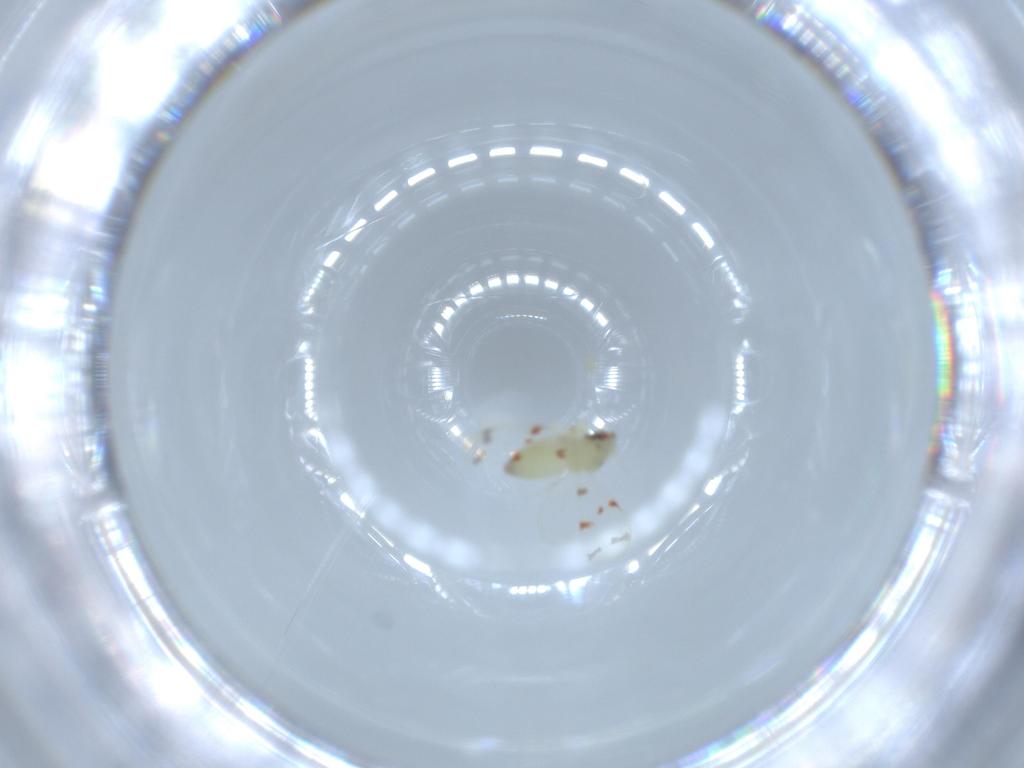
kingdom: Animalia
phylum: Arthropoda
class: Insecta
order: Hemiptera
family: Aleyrodidae
